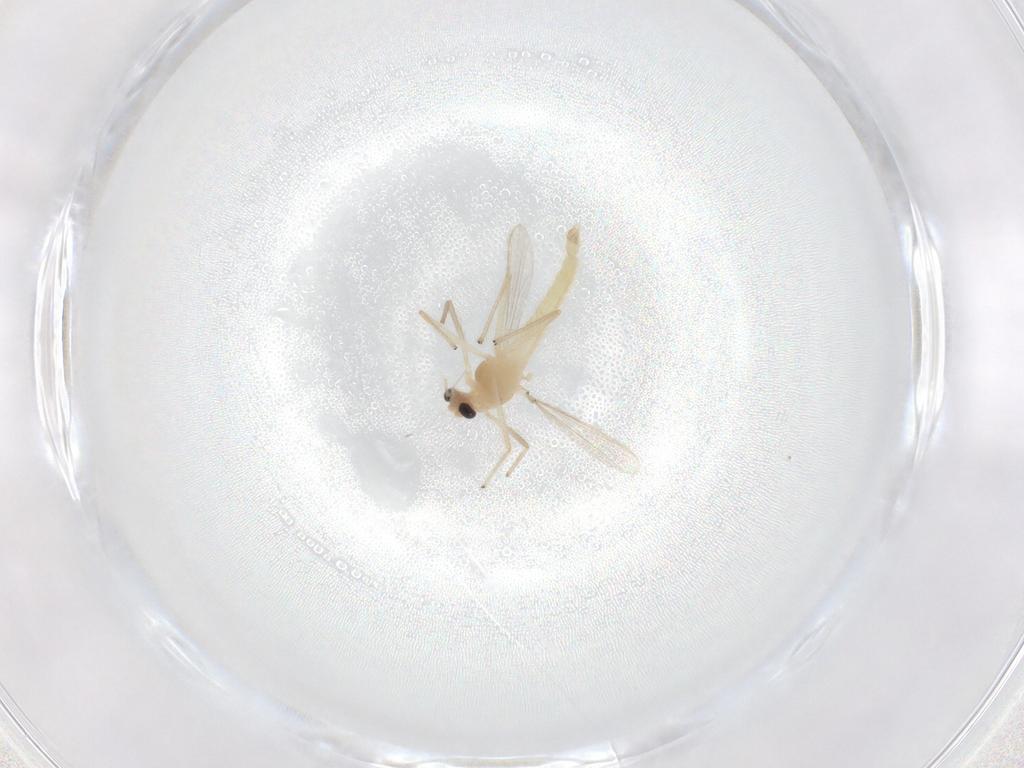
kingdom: Animalia
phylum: Arthropoda
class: Insecta
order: Diptera
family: Chironomidae
